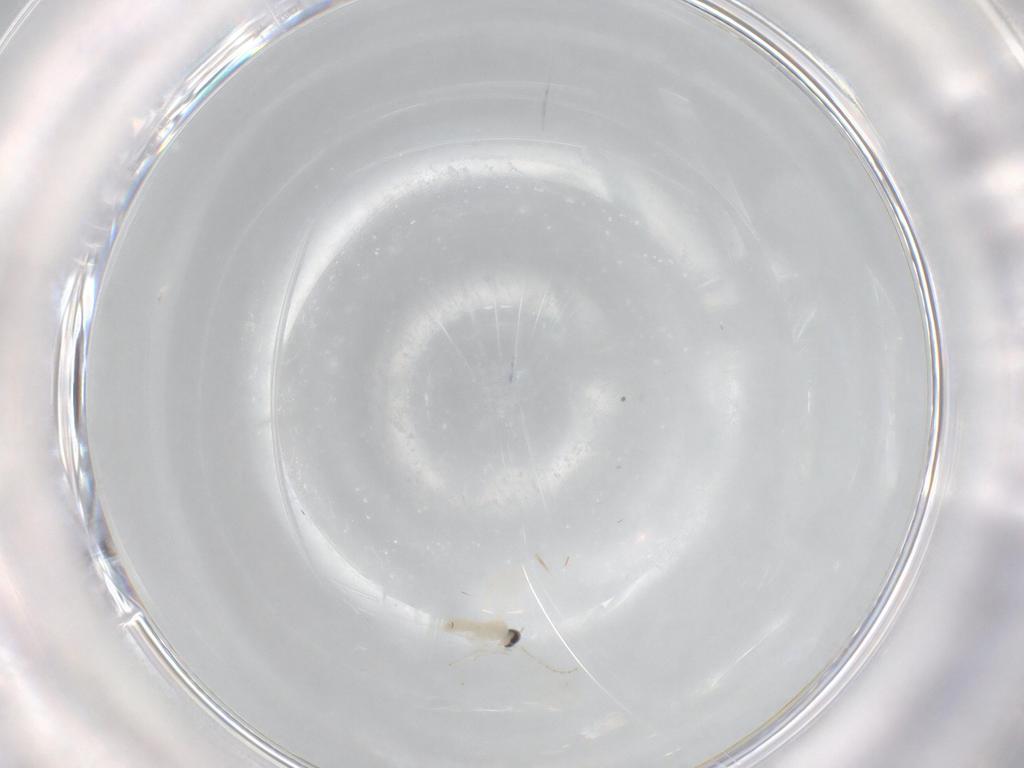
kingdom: Animalia
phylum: Arthropoda
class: Insecta
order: Diptera
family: Cecidomyiidae
